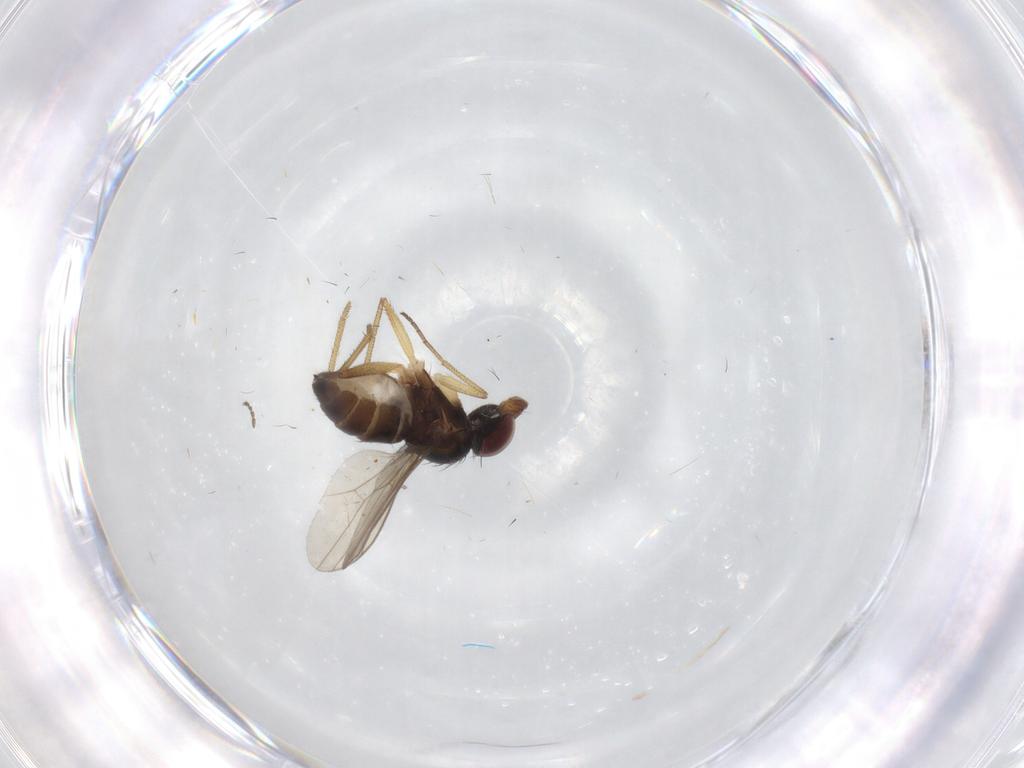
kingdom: Animalia
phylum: Arthropoda
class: Insecta
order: Diptera
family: Dolichopodidae
